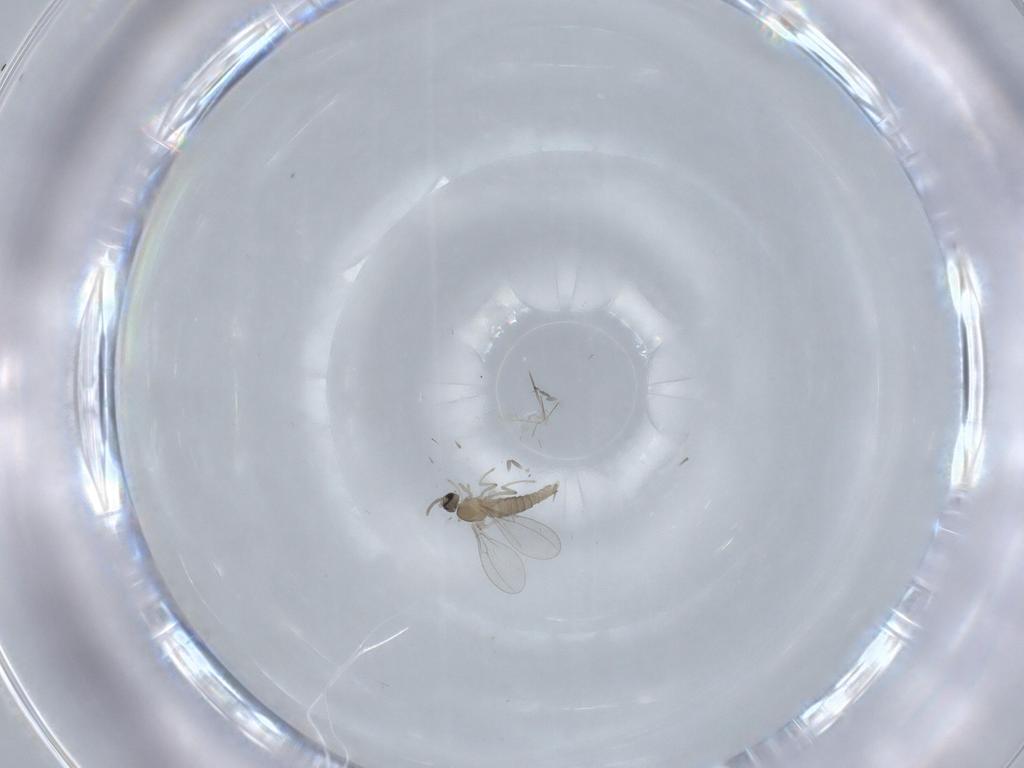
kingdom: Animalia
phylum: Arthropoda
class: Insecta
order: Diptera
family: Cecidomyiidae
